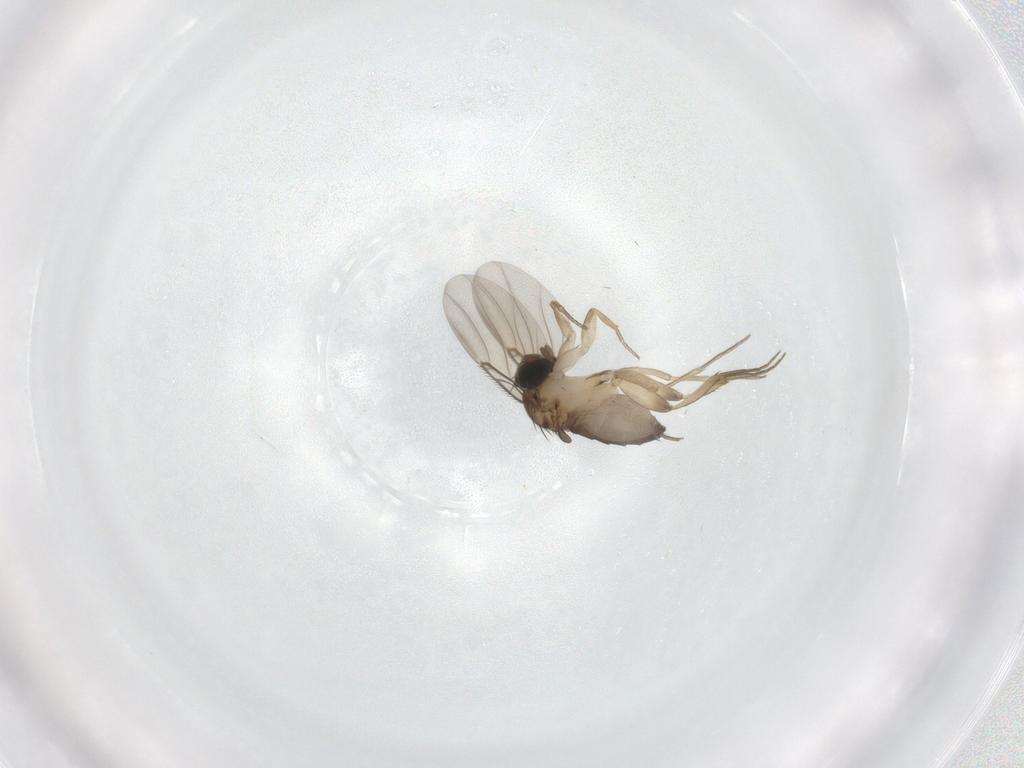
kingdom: Animalia
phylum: Arthropoda
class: Insecta
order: Diptera
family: Phoridae
